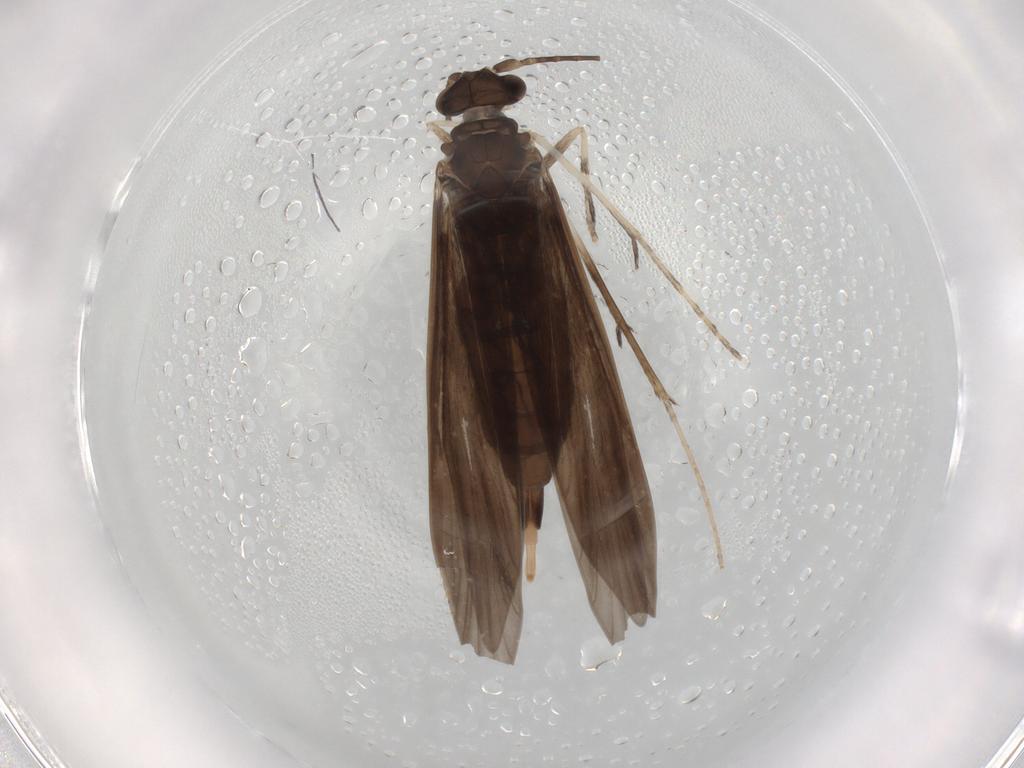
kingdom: Animalia
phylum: Arthropoda
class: Insecta
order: Trichoptera
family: Xiphocentronidae
